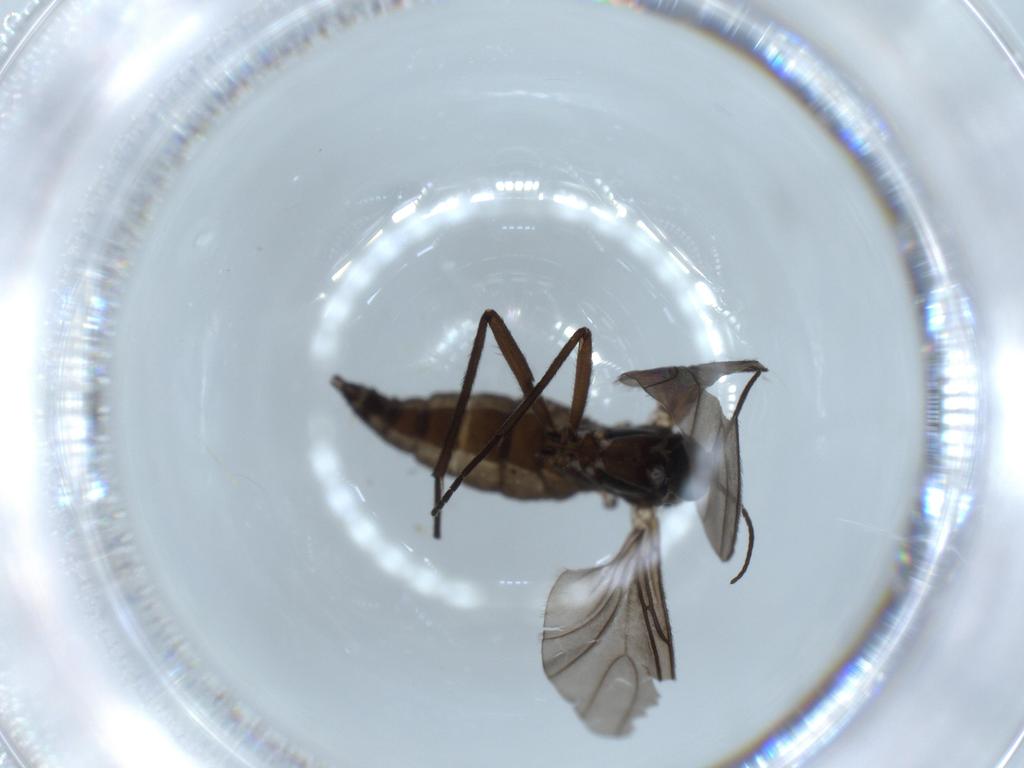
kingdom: Animalia
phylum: Arthropoda
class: Insecta
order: Diptera
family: Sciaridae
